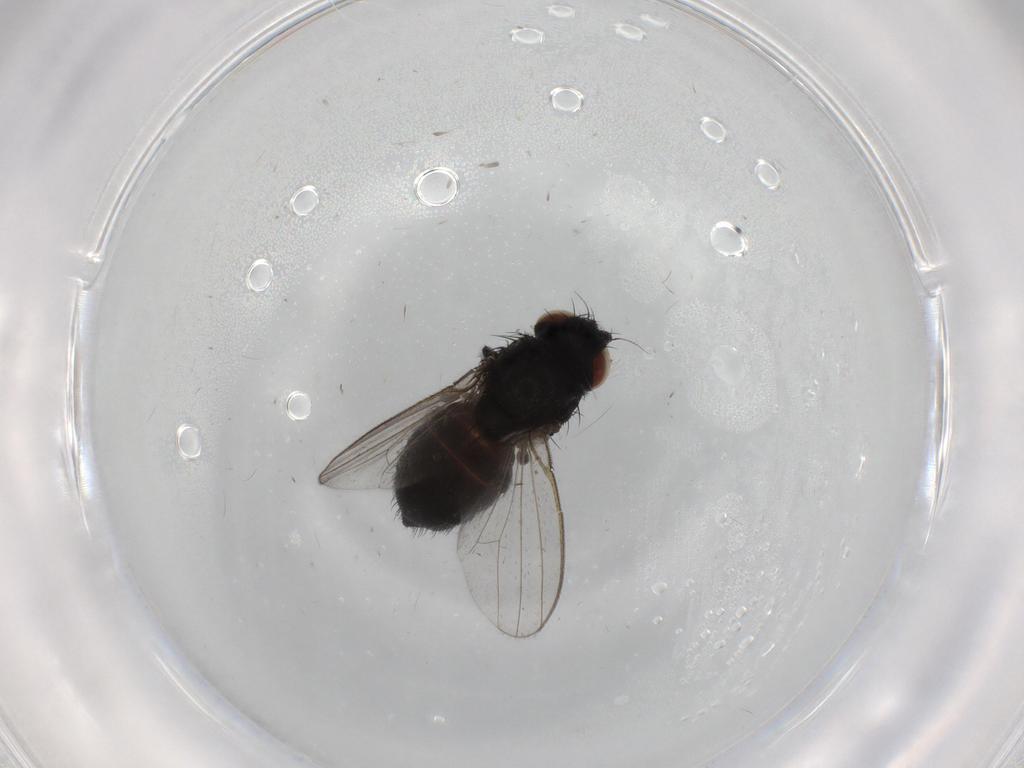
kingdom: Animalia
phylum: Arthropoda
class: Insecta
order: Diptera
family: Milichiidae
